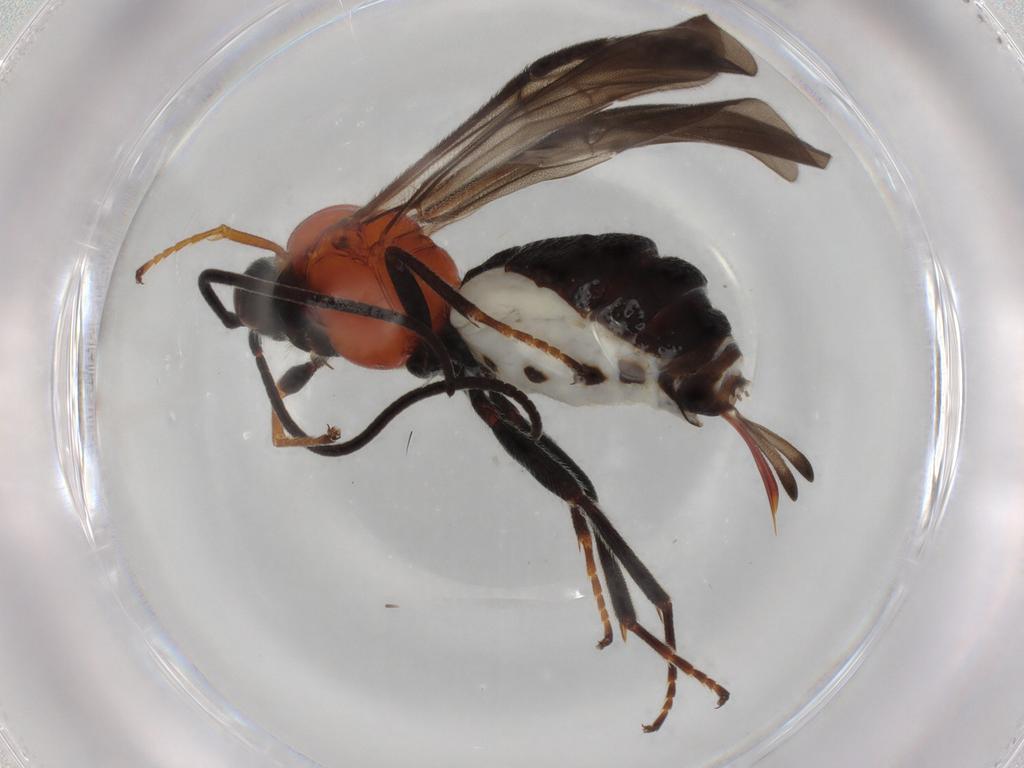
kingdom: Animalia
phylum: Arthropoda
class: Insecta
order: Hymenoptera
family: Braconidae
